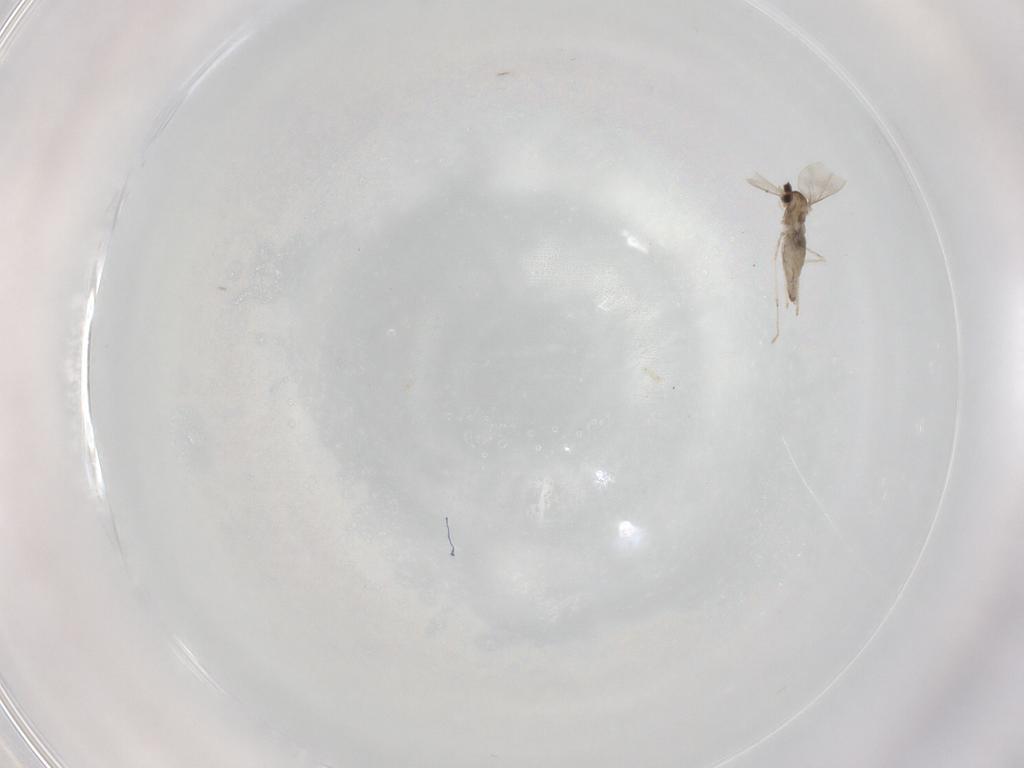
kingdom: Animalia
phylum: Arthropoda
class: Insecta
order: Diptera
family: Cecidomyiidae
